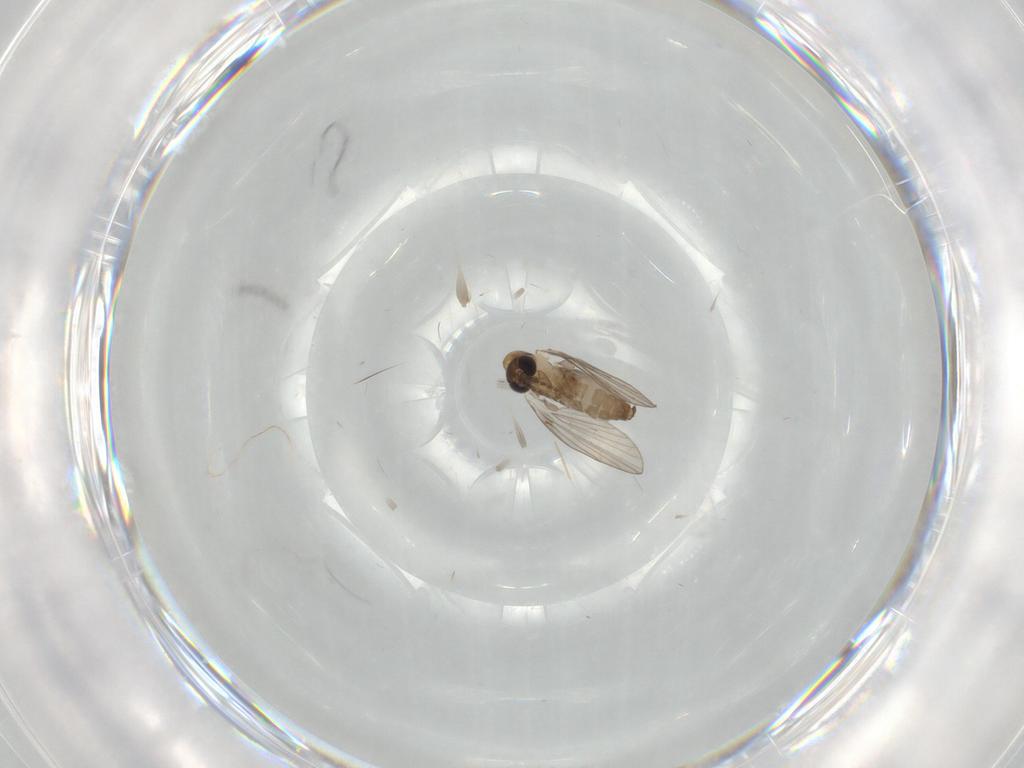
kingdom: Animalia
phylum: Arthropoda
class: Insecta
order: Diptera
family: Psychodidae
